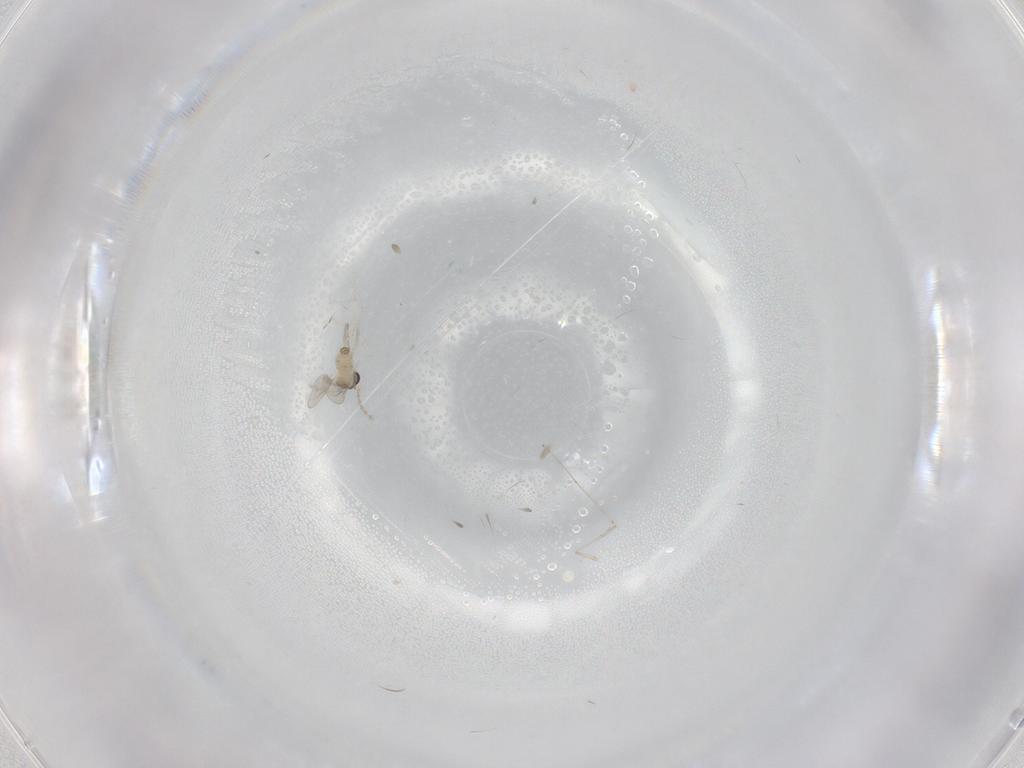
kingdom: Animalia
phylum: Arthropoda
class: Insecta
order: Diptera
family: Cecidomyiidae
